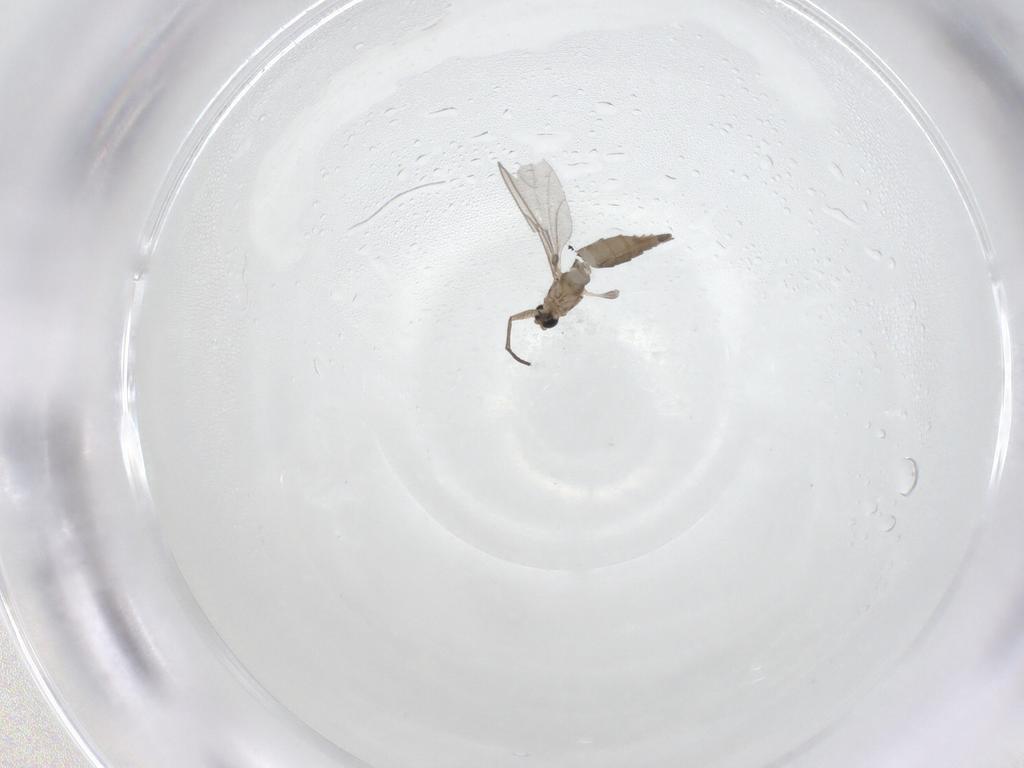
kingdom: Animalia
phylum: Arthropoda
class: Insecta
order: Diptera
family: Sciaridae
